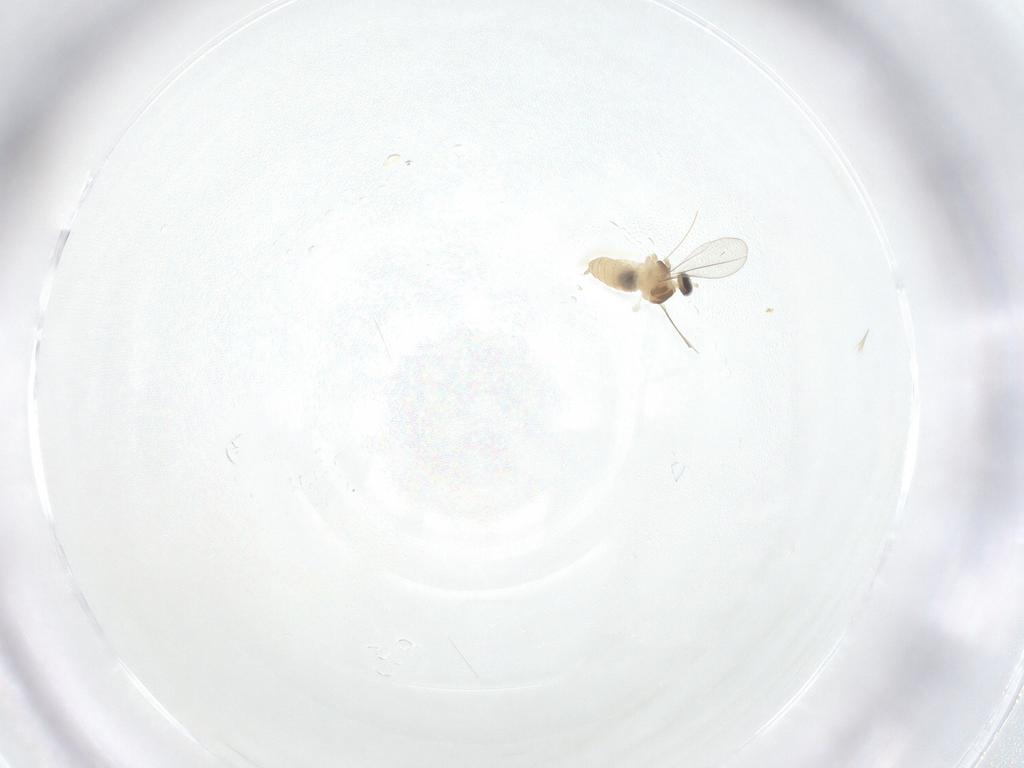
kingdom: Animalia
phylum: Arthropoda
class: Insecta
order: Diptera
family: Cecidomyiidae
